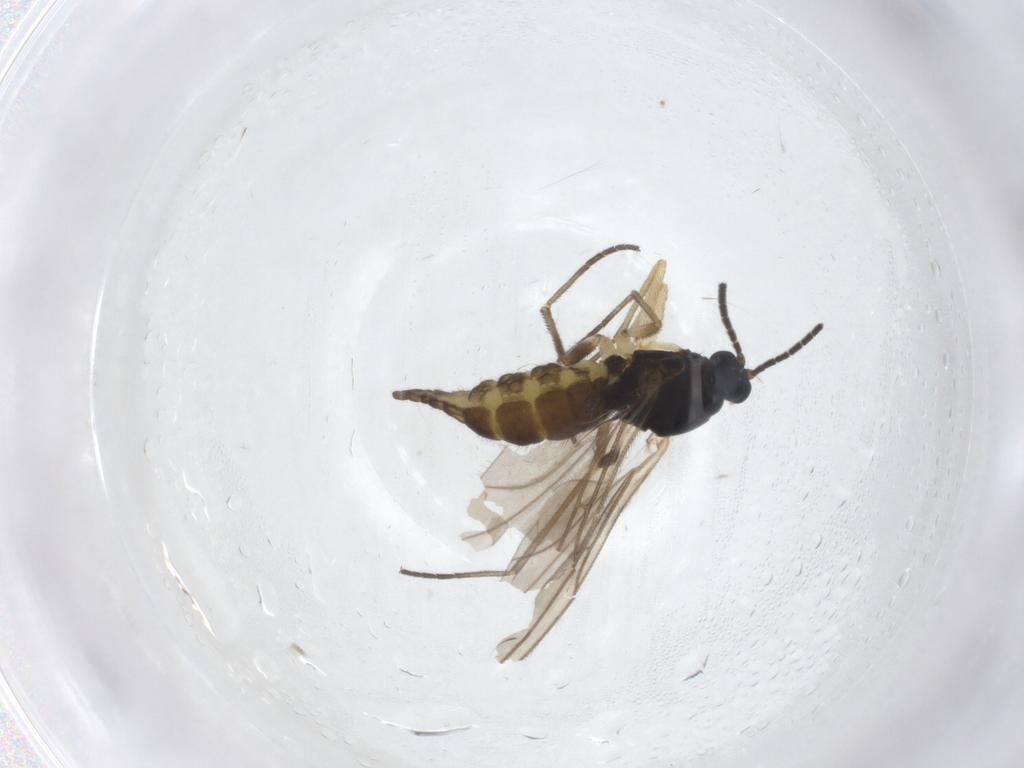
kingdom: Animalia
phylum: Arthropoda
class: Insecta
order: Diptera
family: Sciaridae
